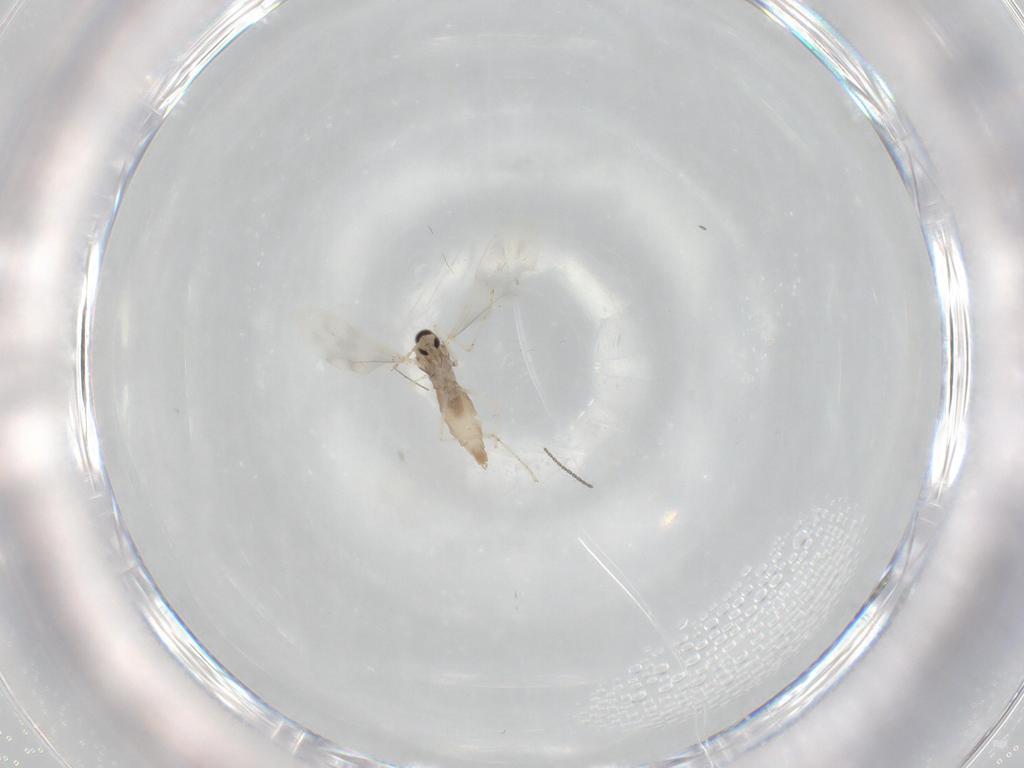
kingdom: Animalia
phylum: Arthropoda
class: Insecta
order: Diptera
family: Cecidomyiidae
